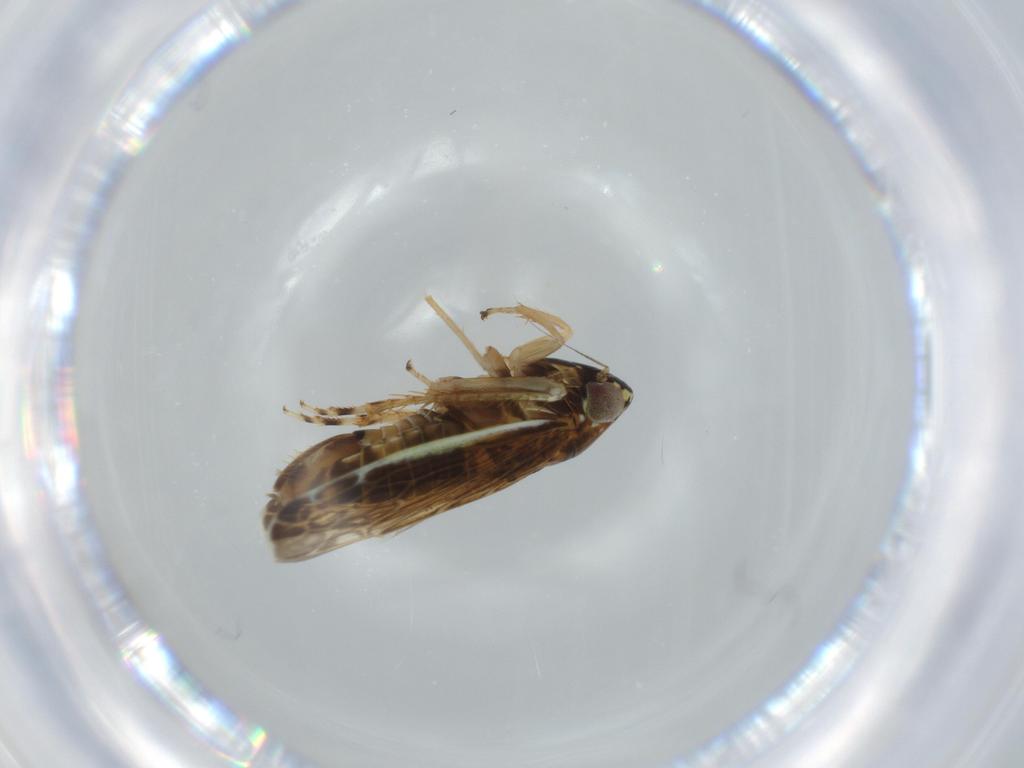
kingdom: Animalia
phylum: Arthropoda
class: Insecta
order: Hemiptera
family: Cicadellidae
